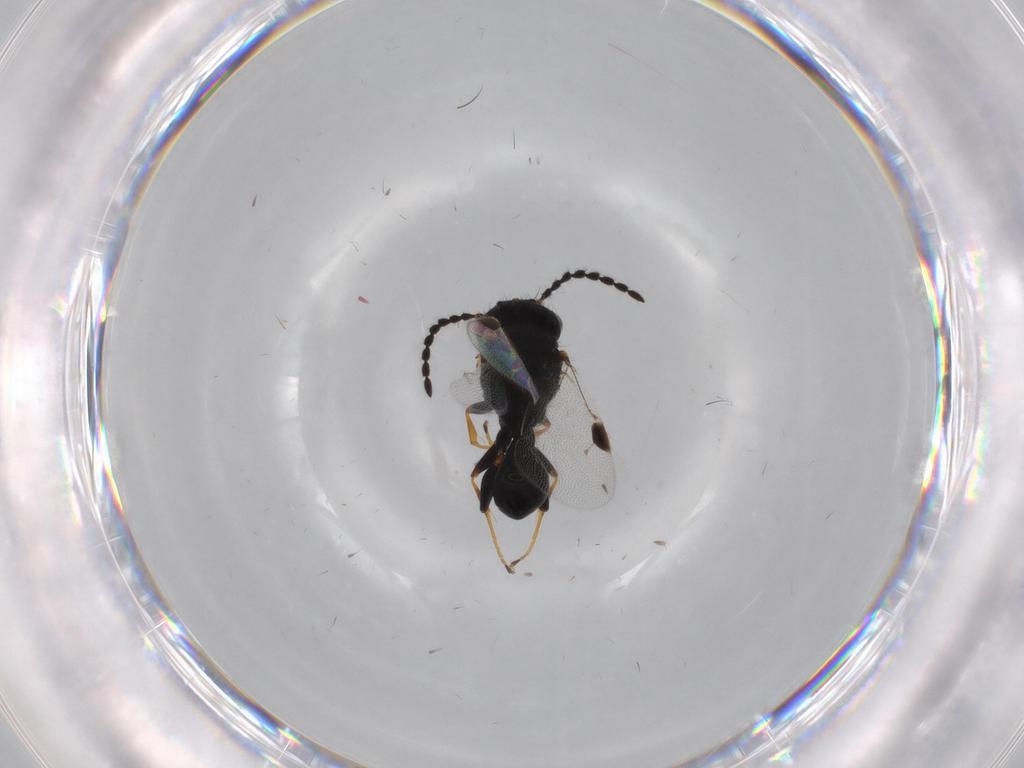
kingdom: Animalia
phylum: Arthropoda
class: Insecta
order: Hymenoptera
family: Dryinidae
